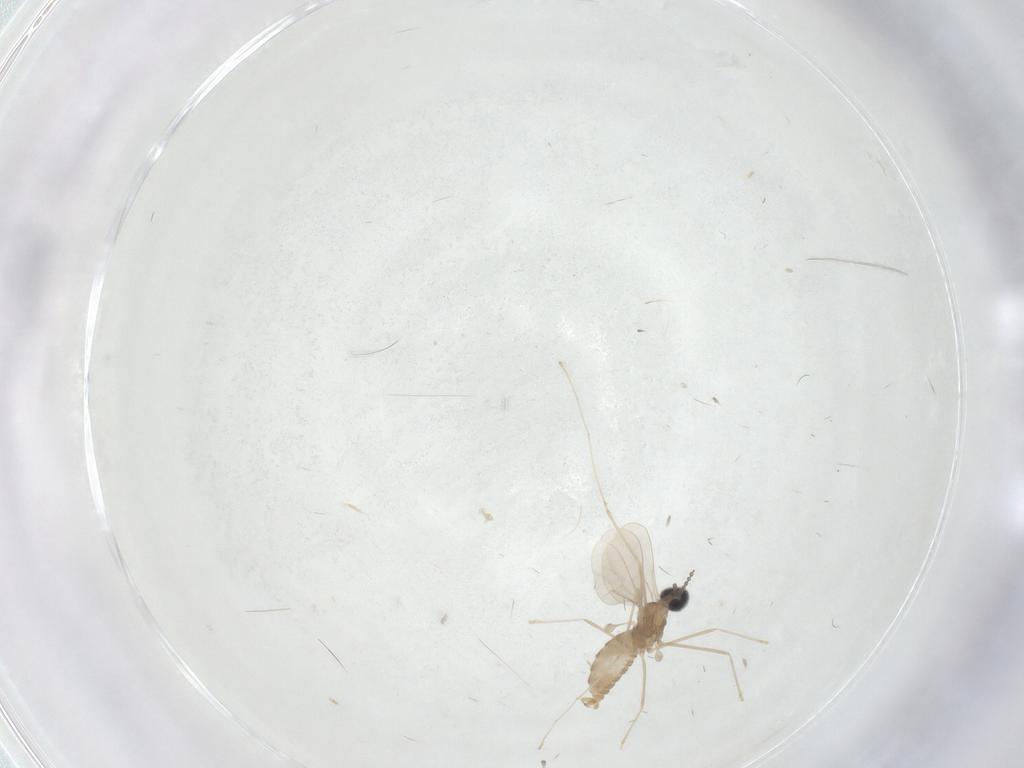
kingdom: Animalia
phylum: Arthropoda
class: Insecta
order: Diptera
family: Cecidomyiidae
